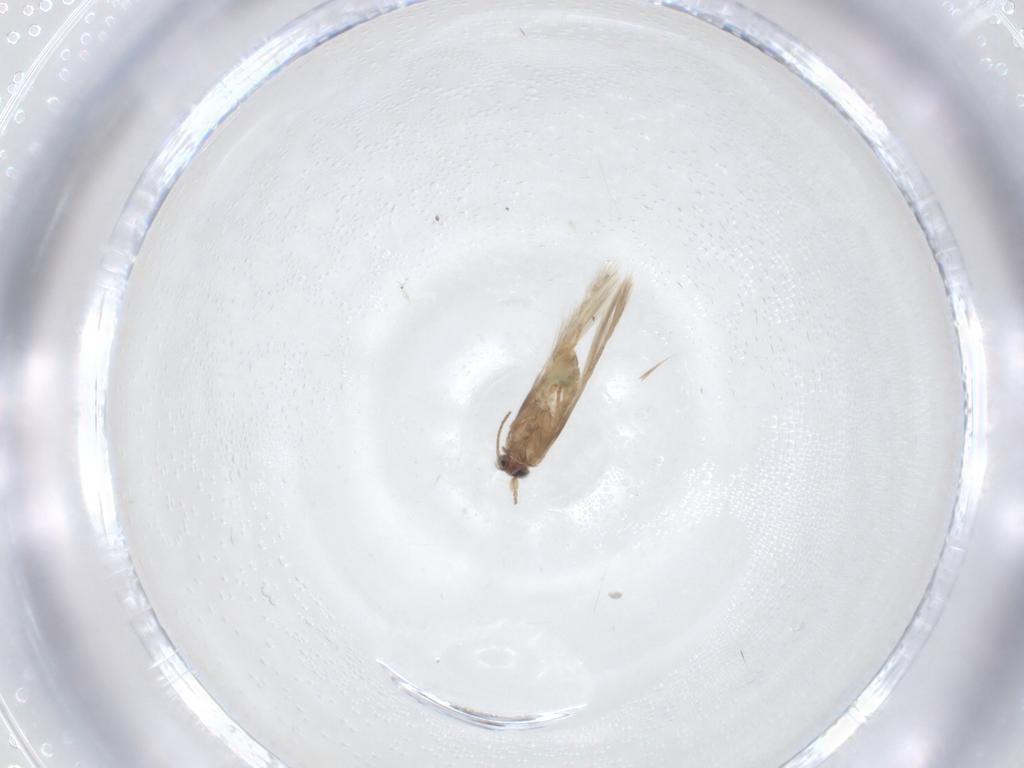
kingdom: Animalia
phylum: Arthropoda
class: Insecta
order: Lepidoptera
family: Nepticulidae
